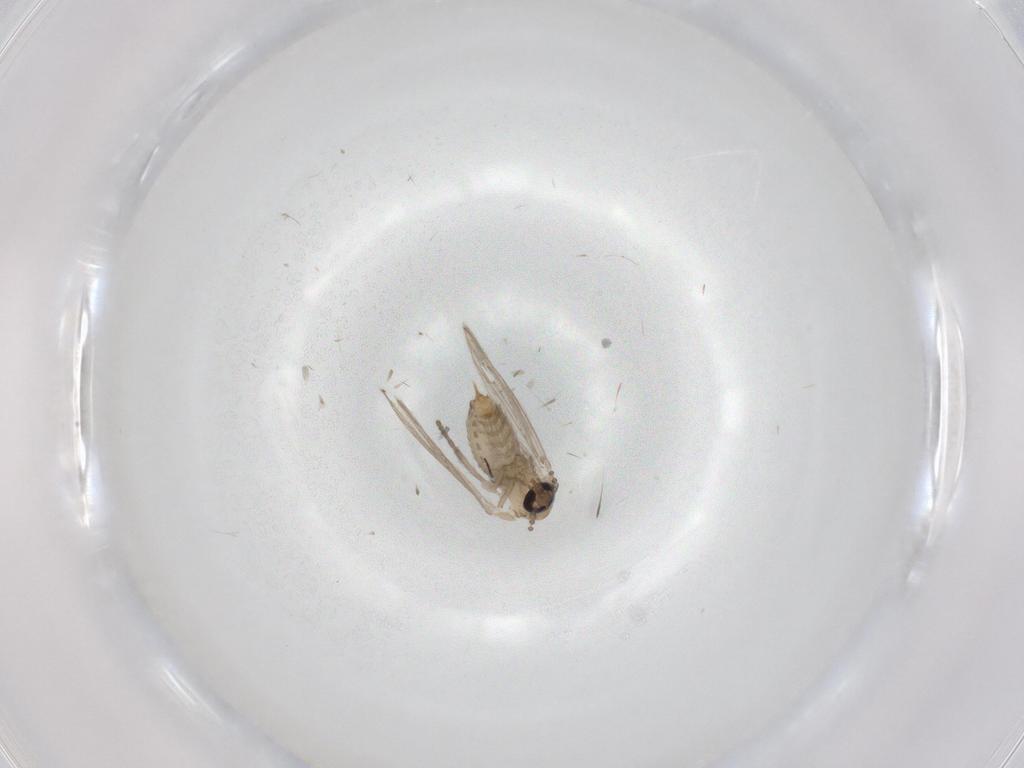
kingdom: Animalia
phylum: Arthropoda
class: Insecta
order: Diptera
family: Psychodidae
